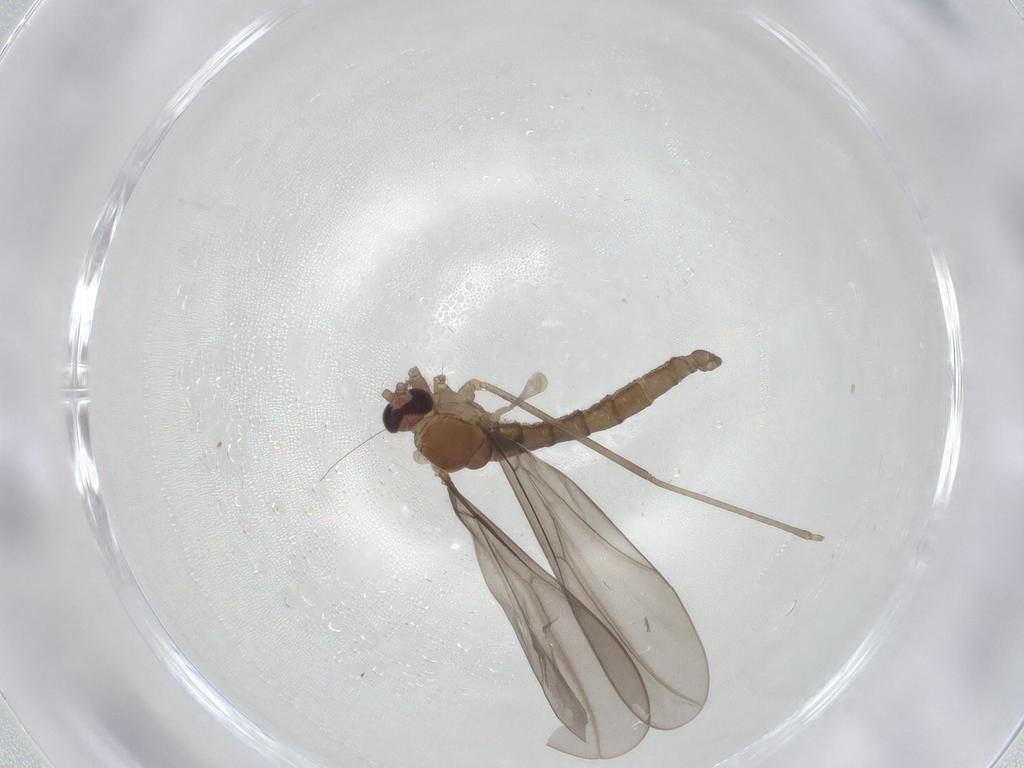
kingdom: Animalia
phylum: Arthropoda
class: Insecta
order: Diptera
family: Cecidomyiidae
